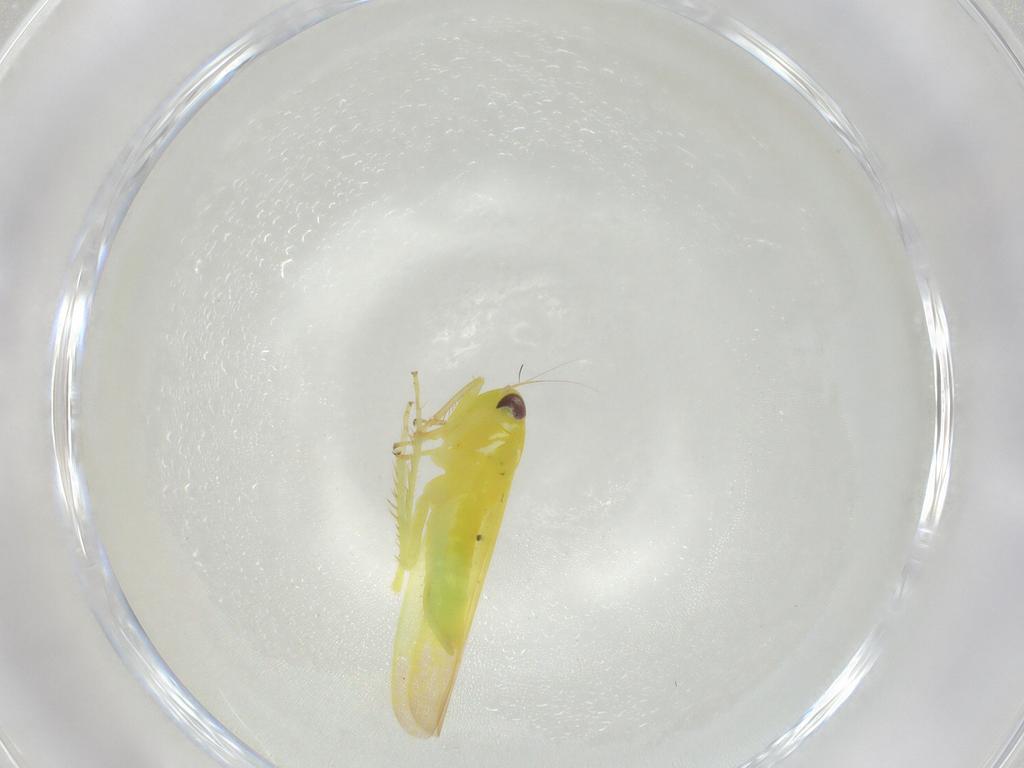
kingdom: Animalia
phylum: Arthropoda
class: Insecta
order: Hemiptera
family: Cicadellidae
